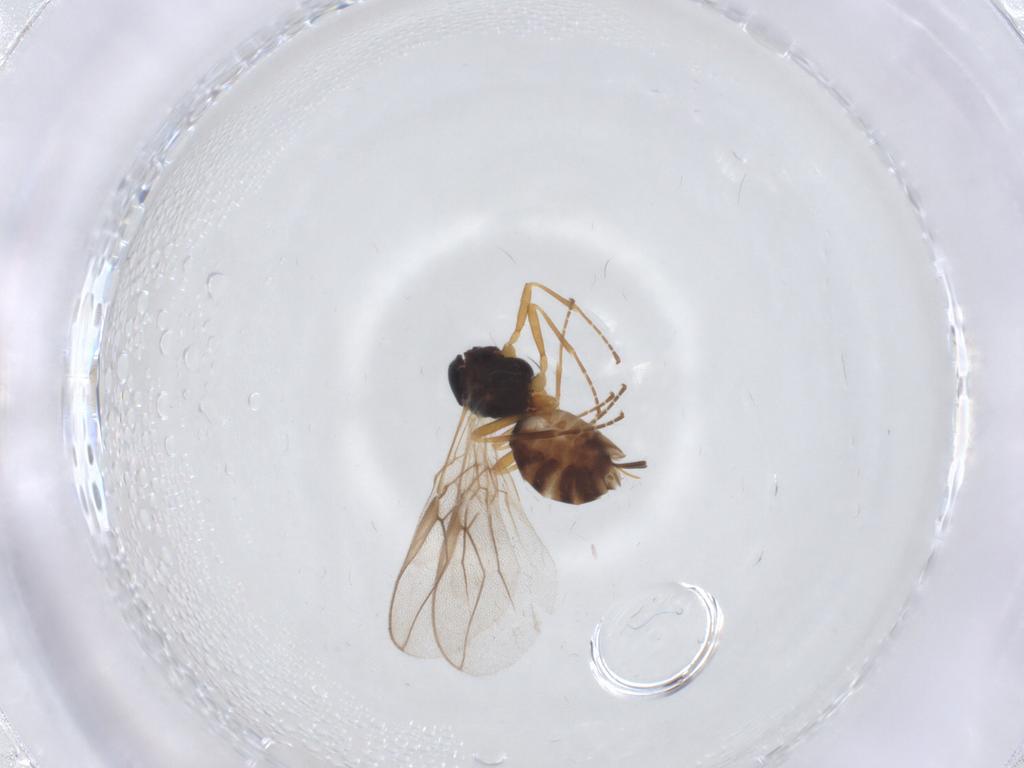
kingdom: Animalia
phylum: Arthropoda
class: Insecta
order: Hymenoptera
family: Braconidae
